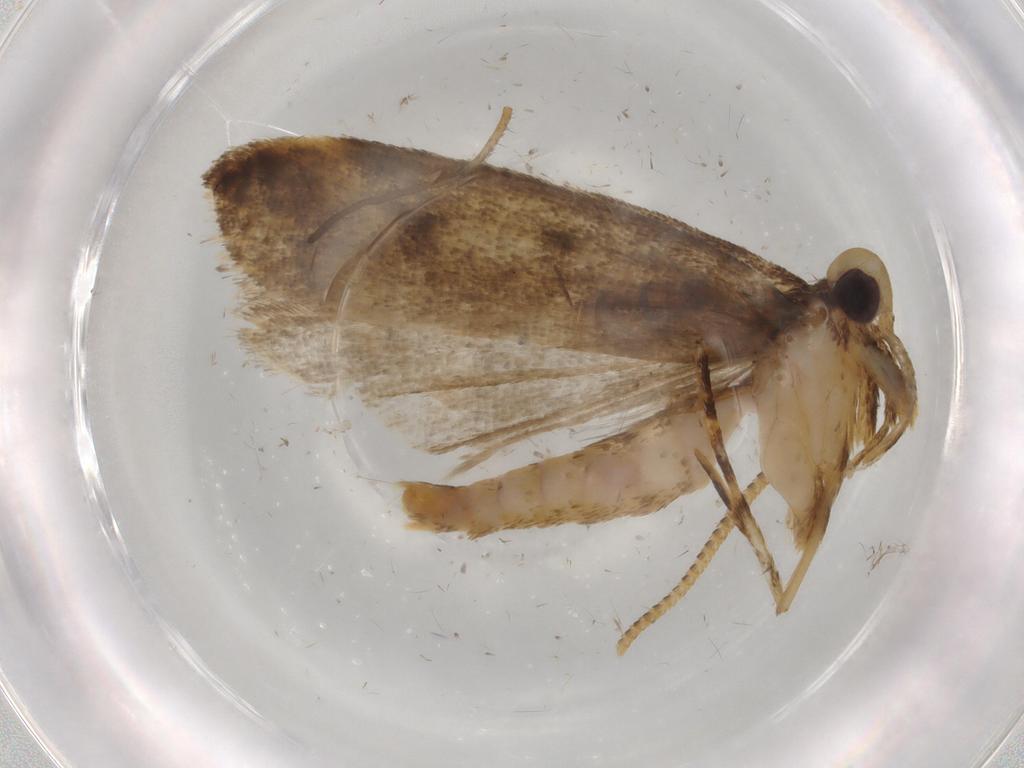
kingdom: Animalia
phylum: Arthropoda
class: Insecta
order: Lepidoptera
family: Autostichidae
